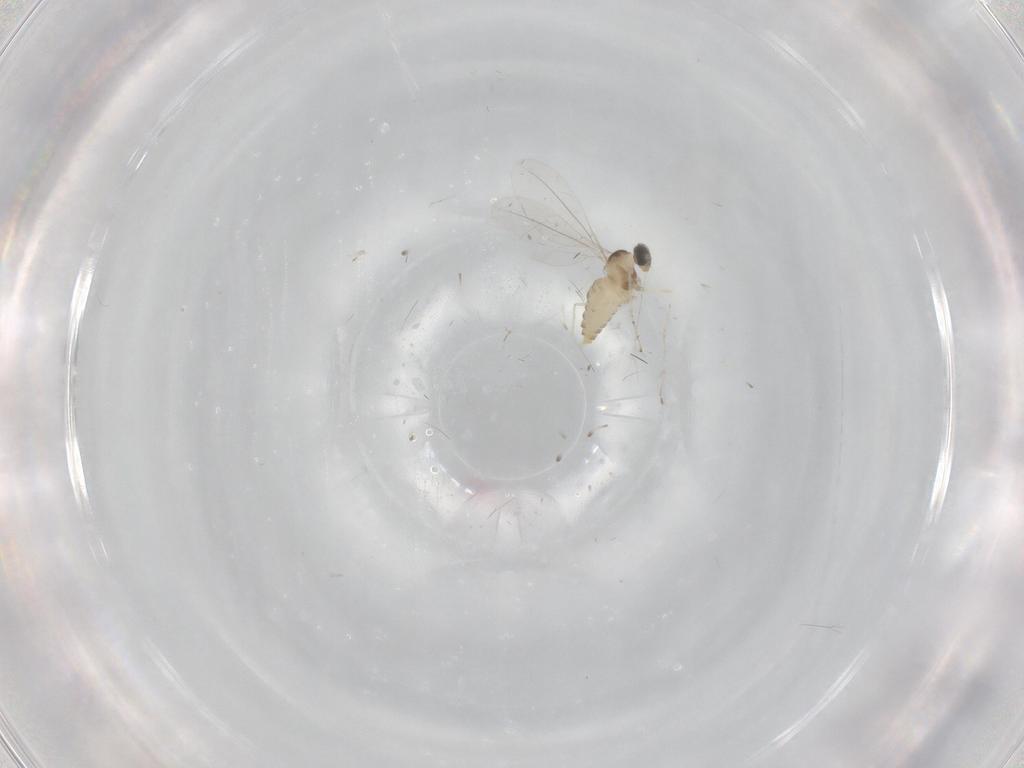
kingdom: Animalia
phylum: Arthropoda
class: Insecta
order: Diptera
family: Cecidomyiidae
